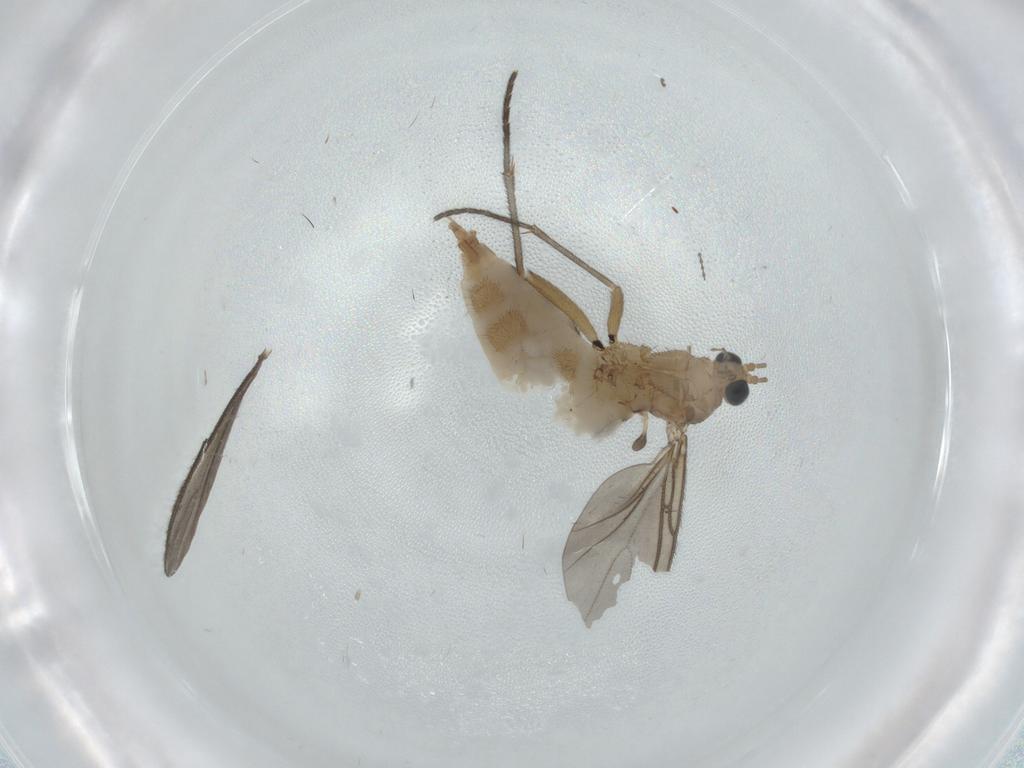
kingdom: Animalia
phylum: Arthropoda
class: Insecta
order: Diptera
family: Sciaridae
